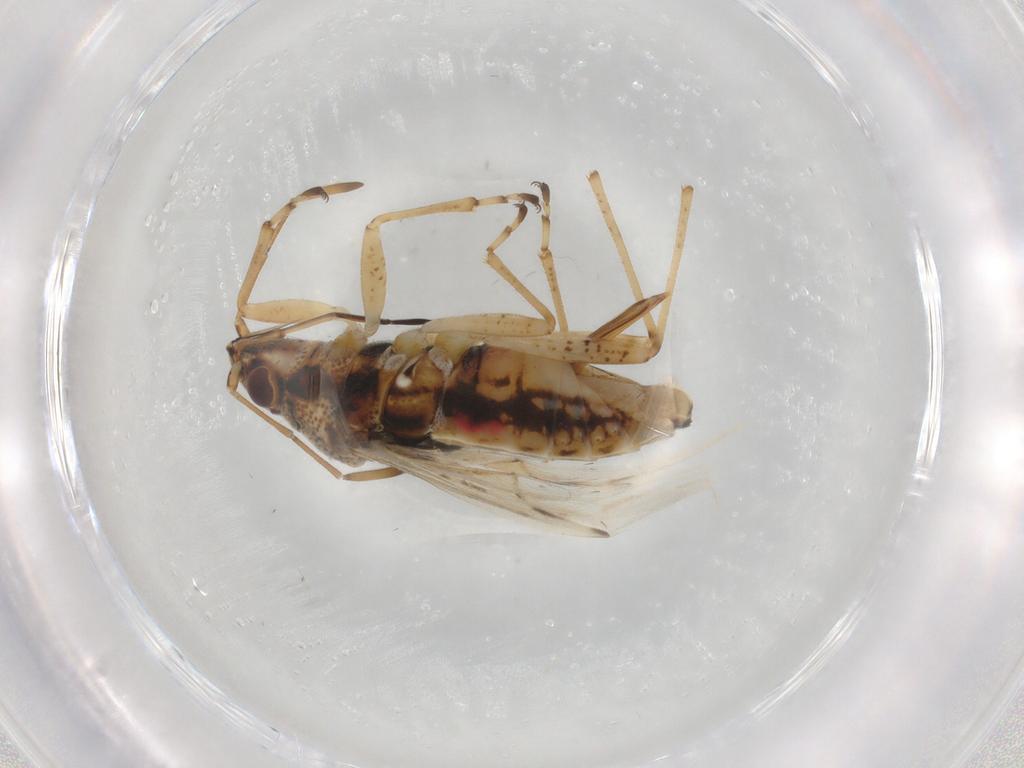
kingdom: Animalia
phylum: Arthropoda
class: Insecta
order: Hemiptera
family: Lygaeidae
